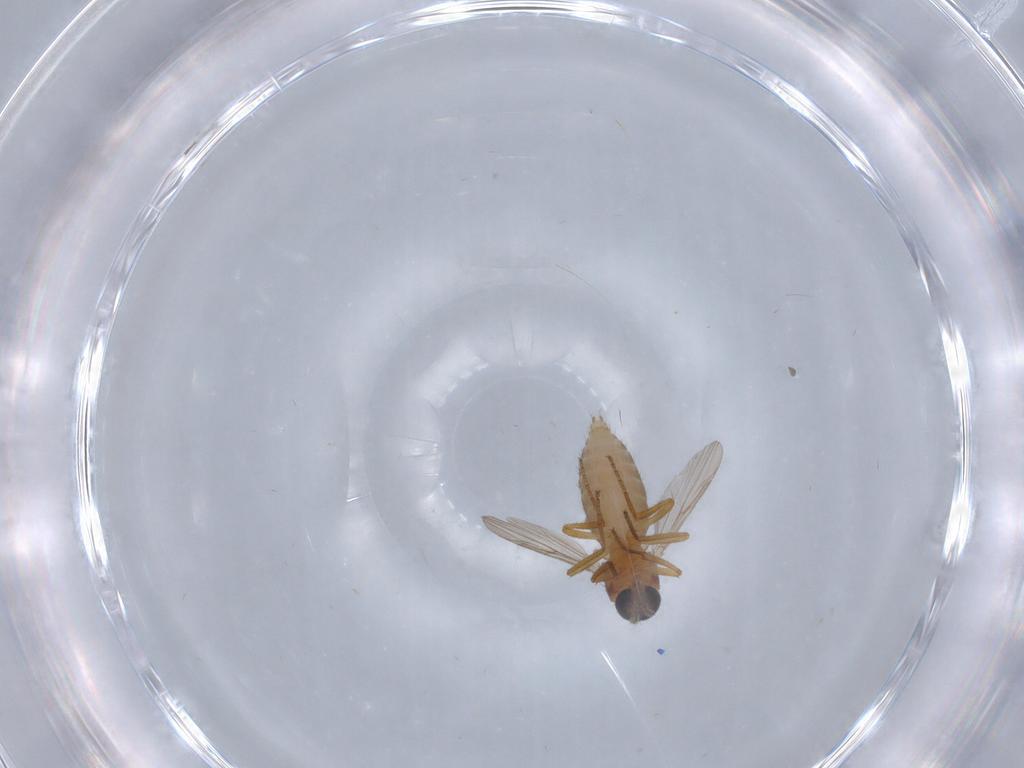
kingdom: Animalia
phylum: Arthropoda
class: Insecta
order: Diptera
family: Ceratopogonidae
